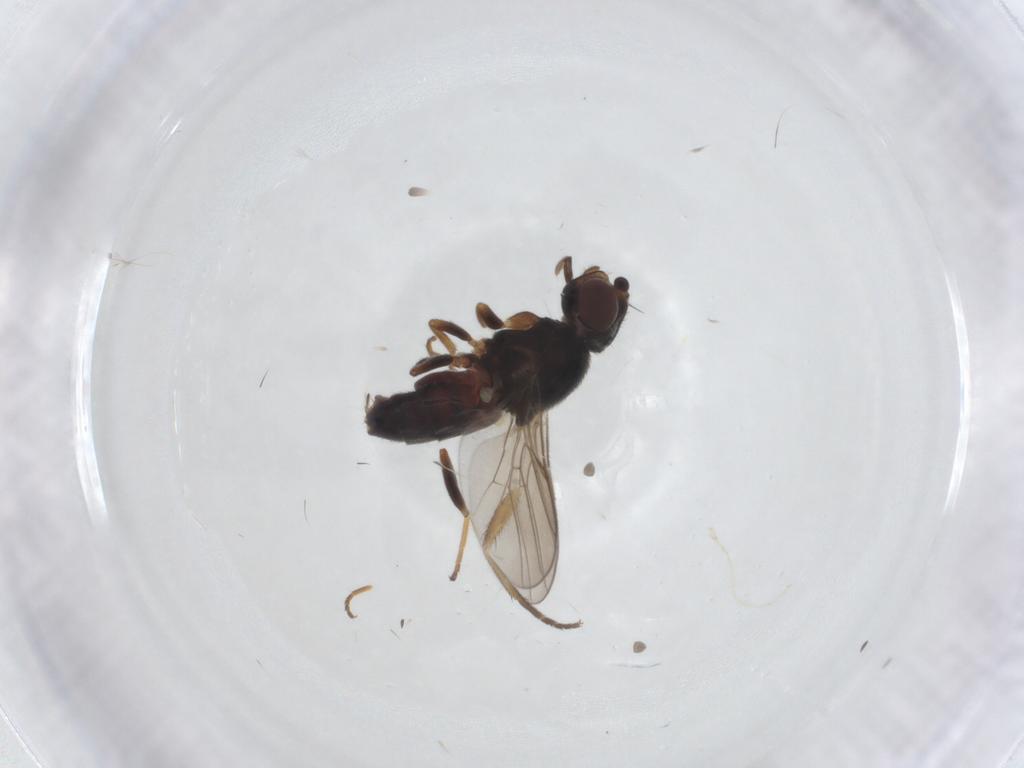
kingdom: Animalia
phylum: Arthropoda
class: Insecta
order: Diptera
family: Chloropidae
